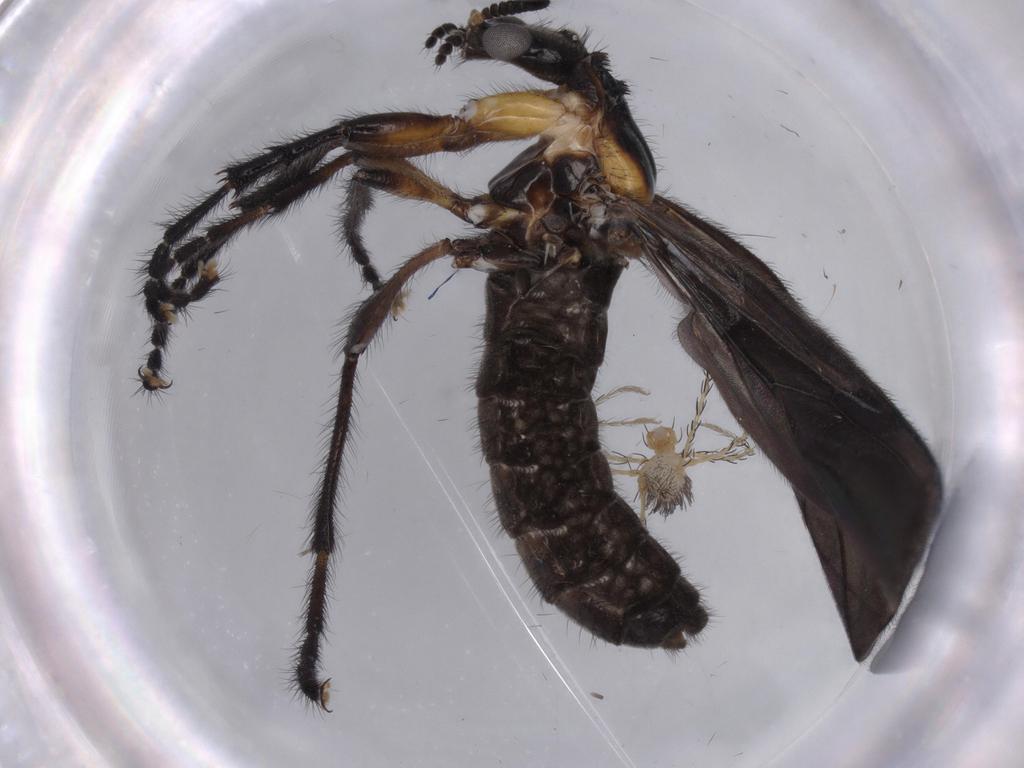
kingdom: Animalia
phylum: Arthropoda
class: Insecta
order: Diptera
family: Bibionidae
